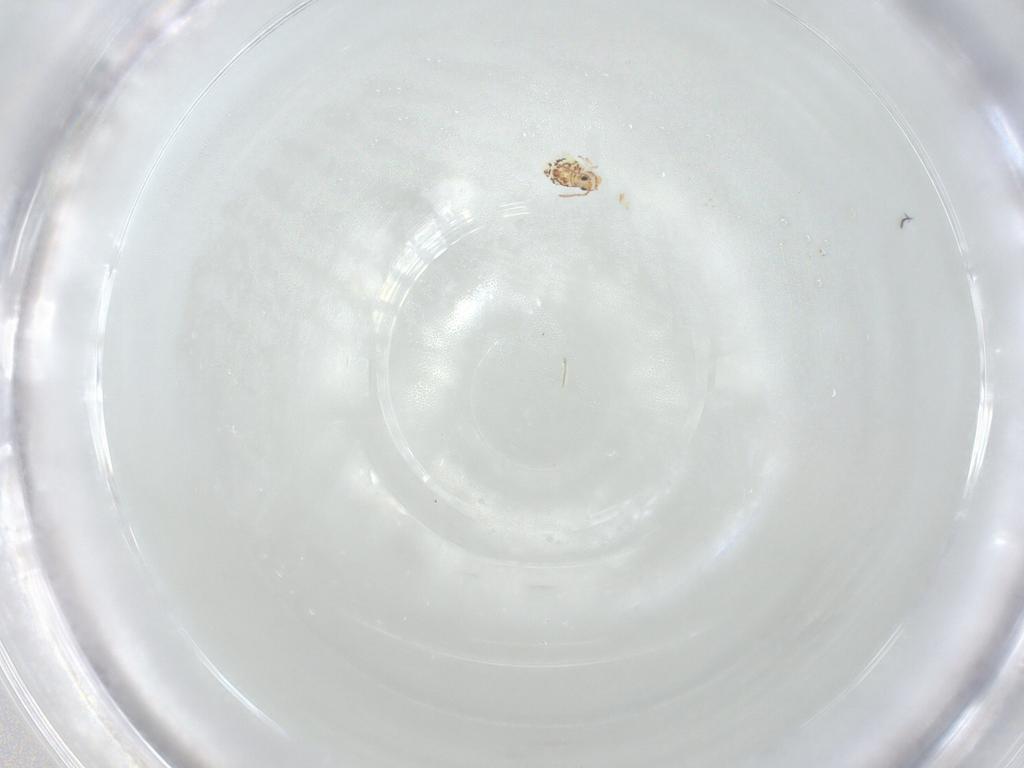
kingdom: Animalia
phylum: Arthropoda
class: Collembola
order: Symphypleona
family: Bourletiellidae
